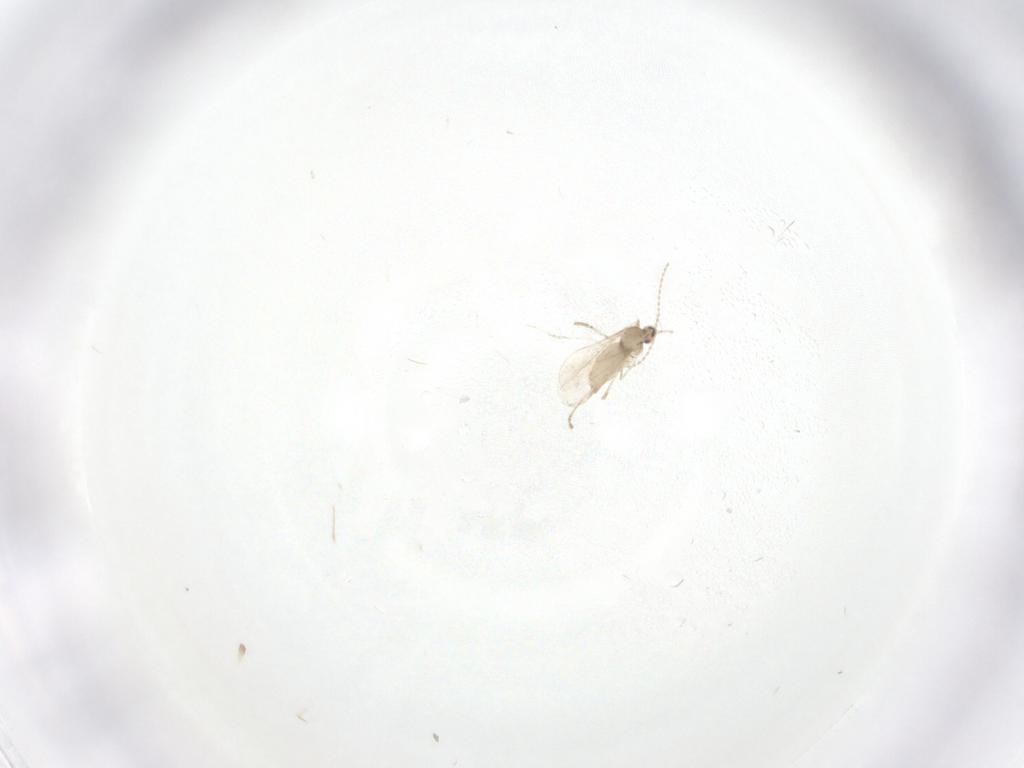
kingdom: Animalia
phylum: Arthropoda
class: Insecta
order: Diptera
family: Cecidomyiidae
